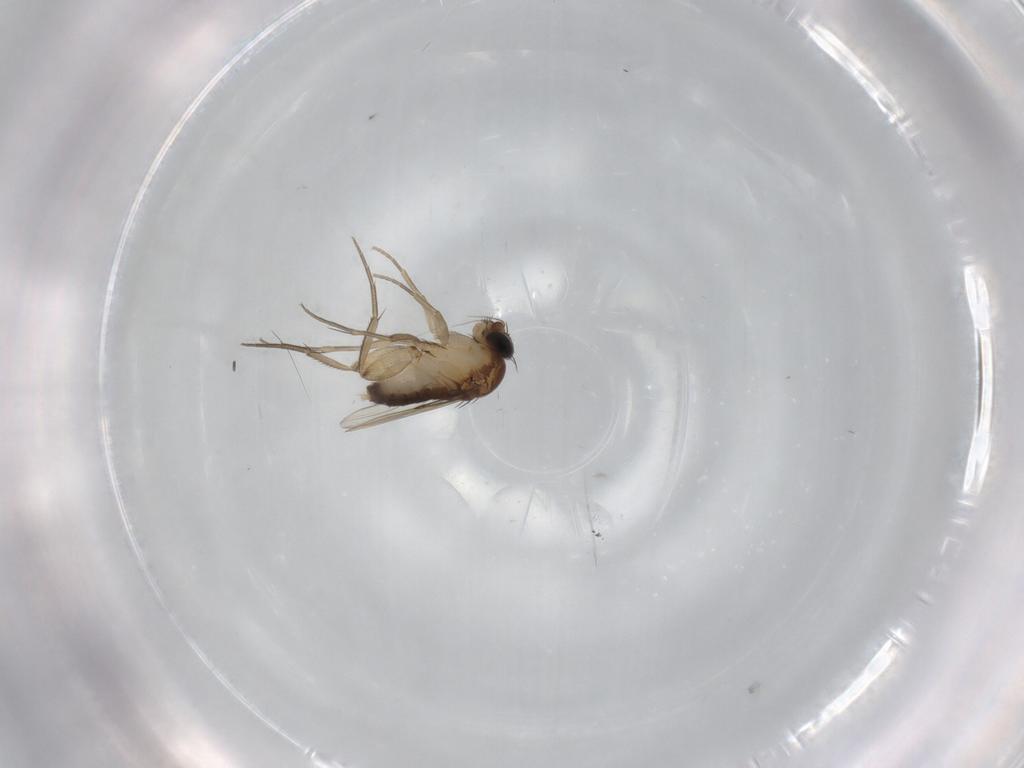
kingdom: Animalia
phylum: Arthropoda
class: Insecta
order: Diptera
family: Phoridae
